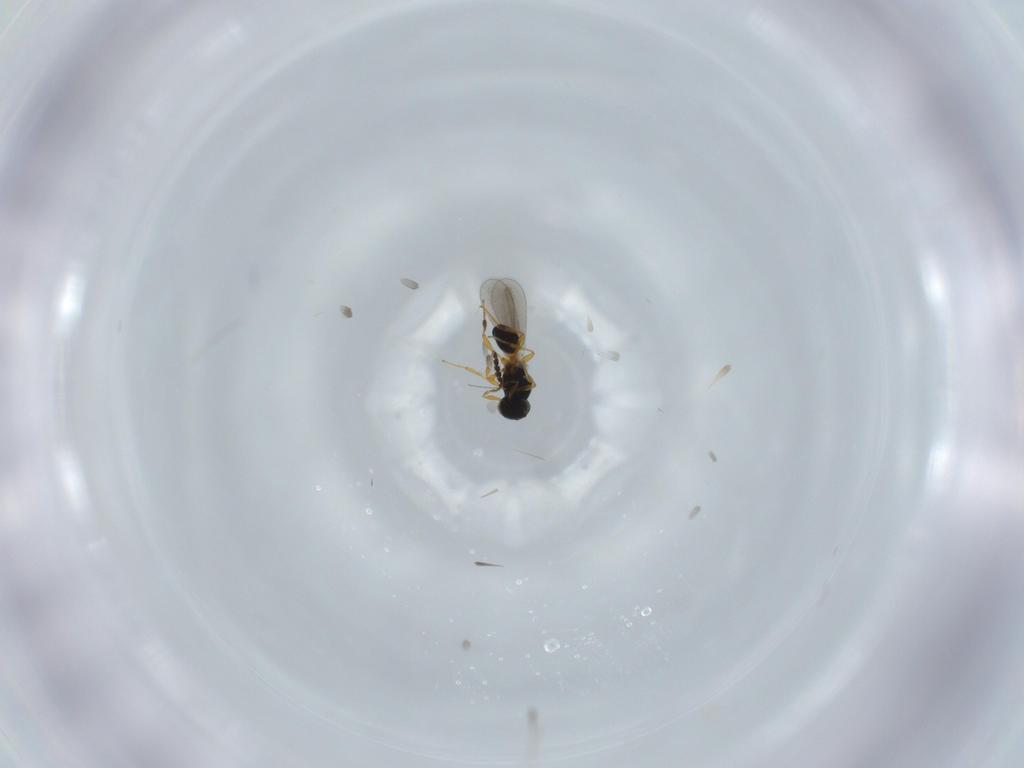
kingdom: Animalia
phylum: Arthropoda
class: Insecta
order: Hymenoptera
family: Platygastridae
